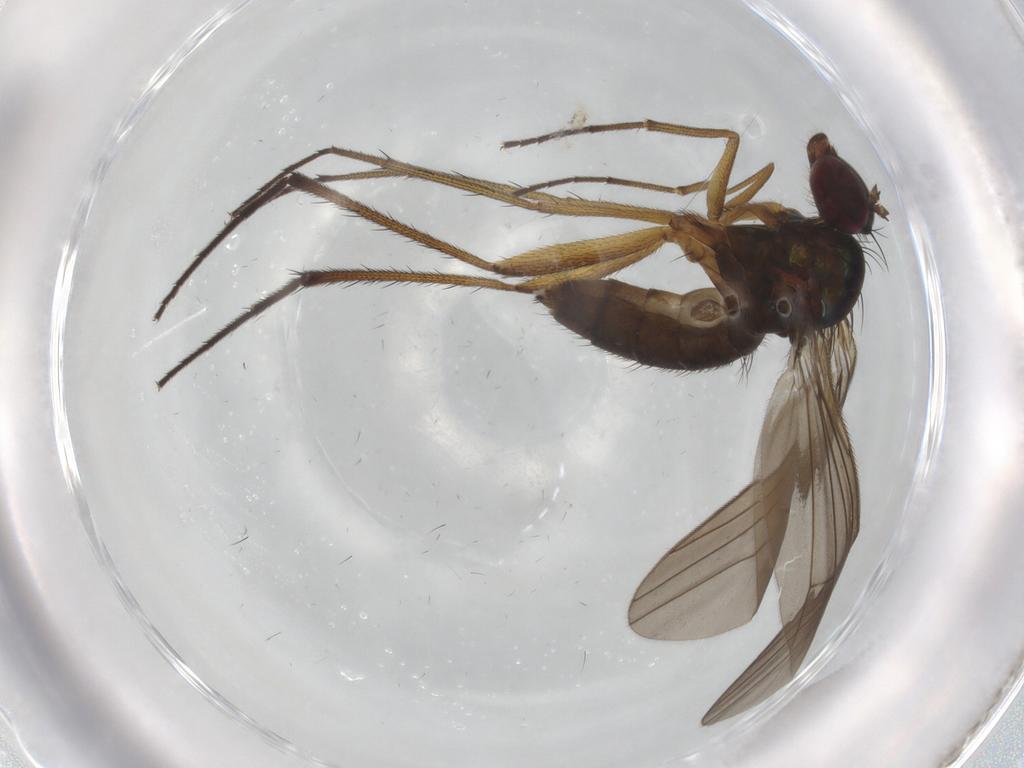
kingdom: Animalia
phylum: Arthropoda
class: Insecta
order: Diptera
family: Dolichopodidae
